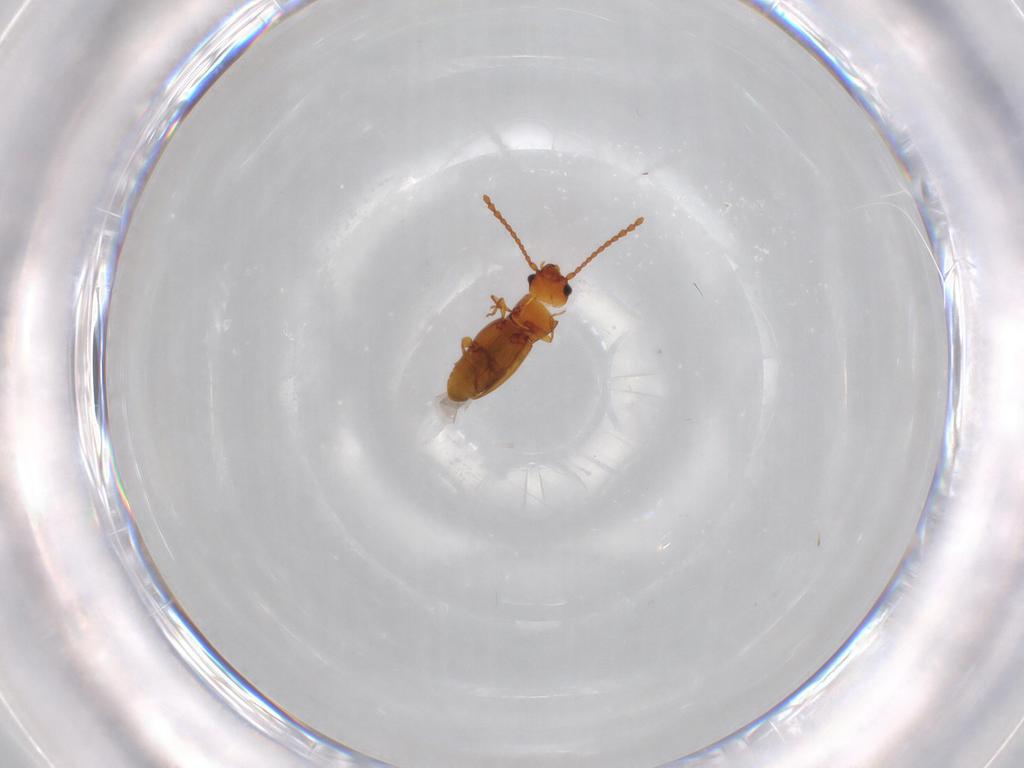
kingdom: Animalia
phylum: Arthropoda
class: Insecta
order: Coleoptera
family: Laemophloeidae
